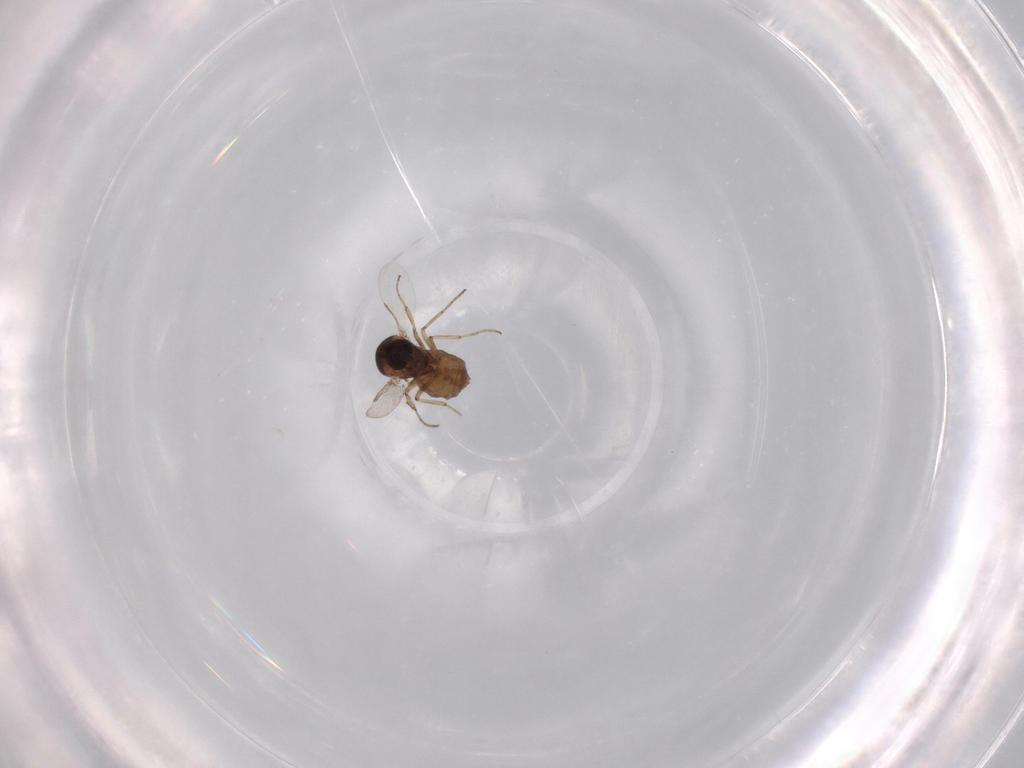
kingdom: Animalia
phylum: Arthropoda
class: Insecta
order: Diptera
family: Ceratopogonidae
